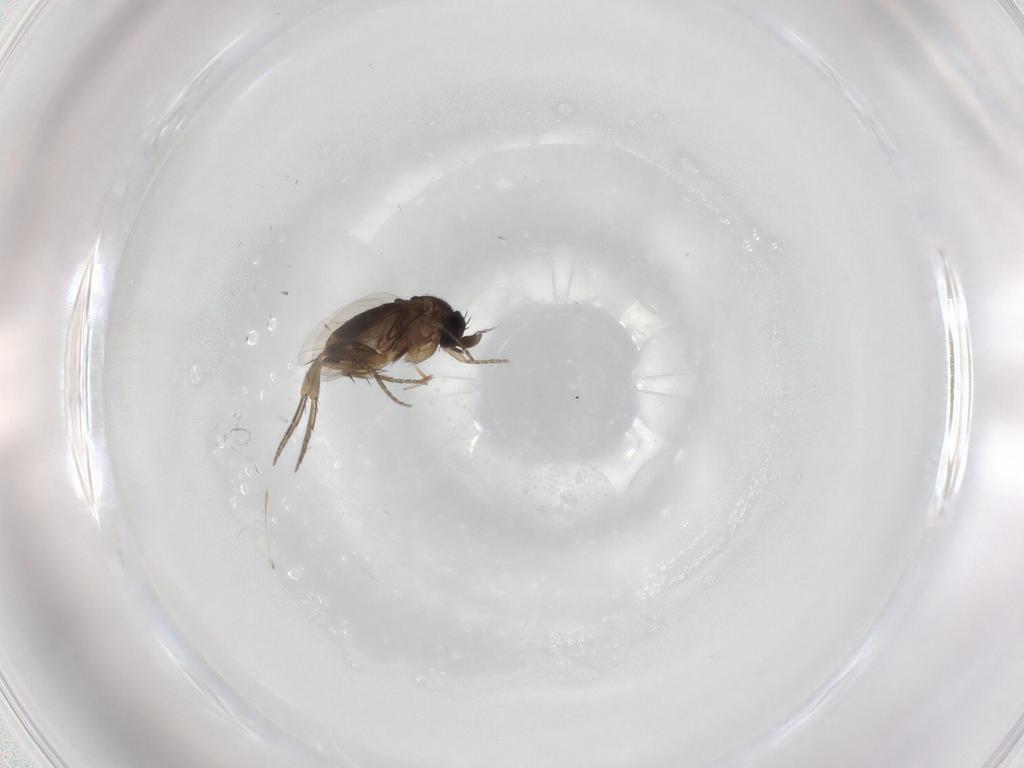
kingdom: Animalia
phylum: Arthropoda
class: Insecta
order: Diptera
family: Phoridae
